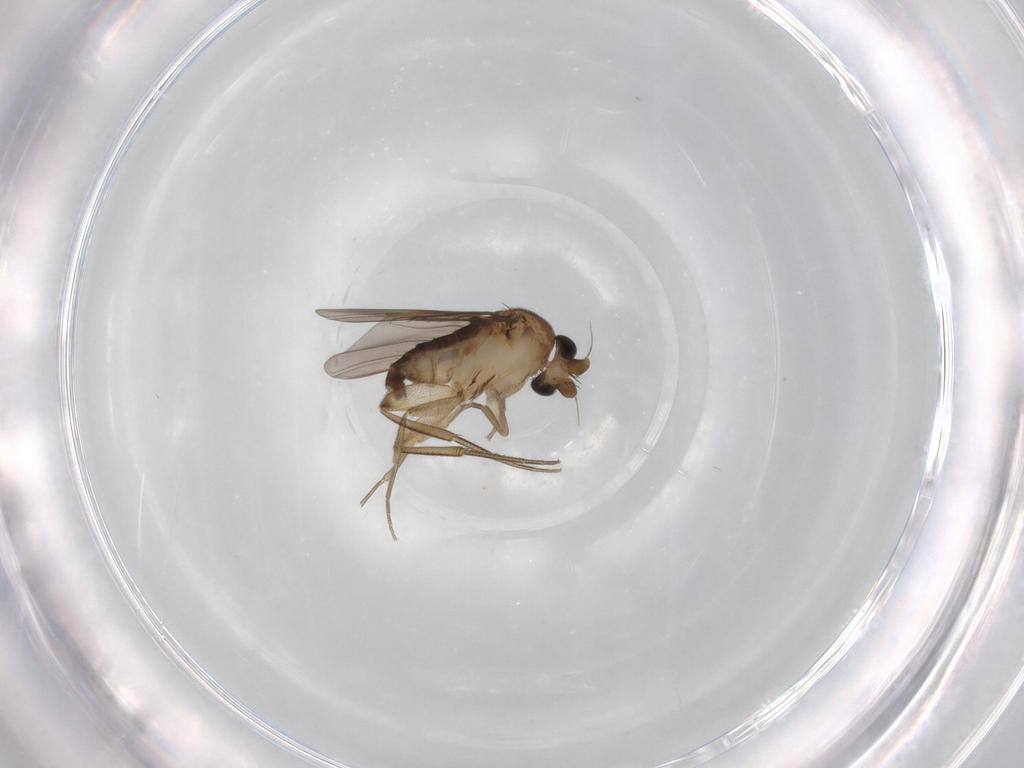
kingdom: Animalia
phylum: Arthropoda
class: Insecta
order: Diptera
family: Phoridae
